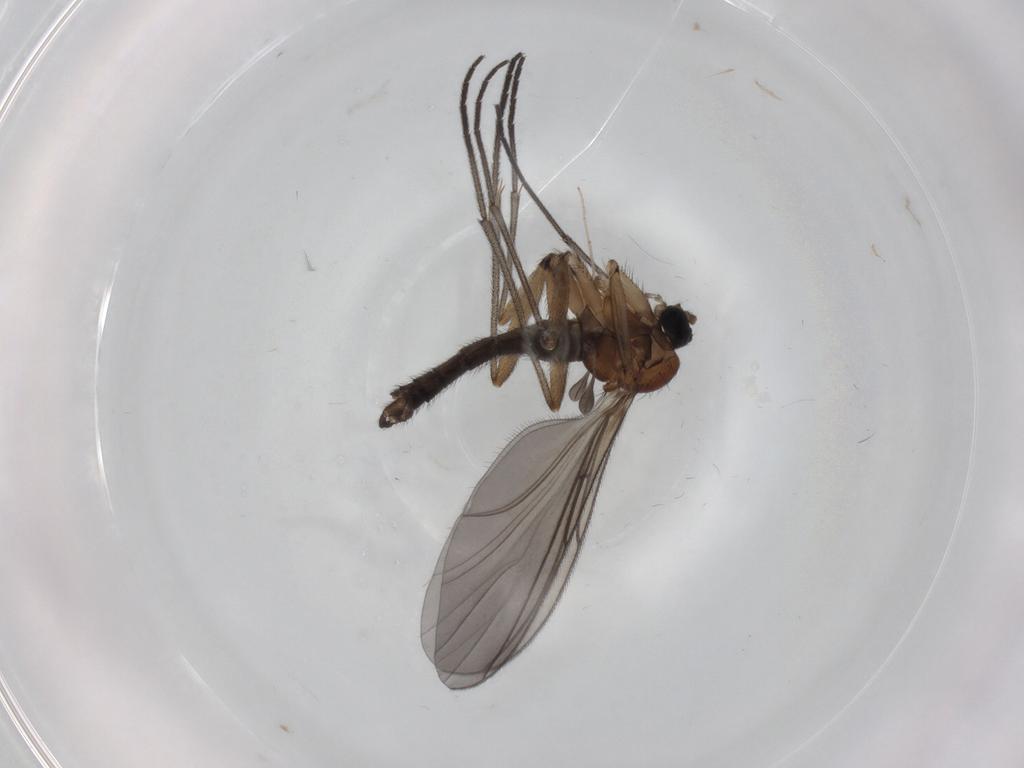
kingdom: Animalia
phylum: Arthropoda
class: Insecta
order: Diptera
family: Sciaridae
